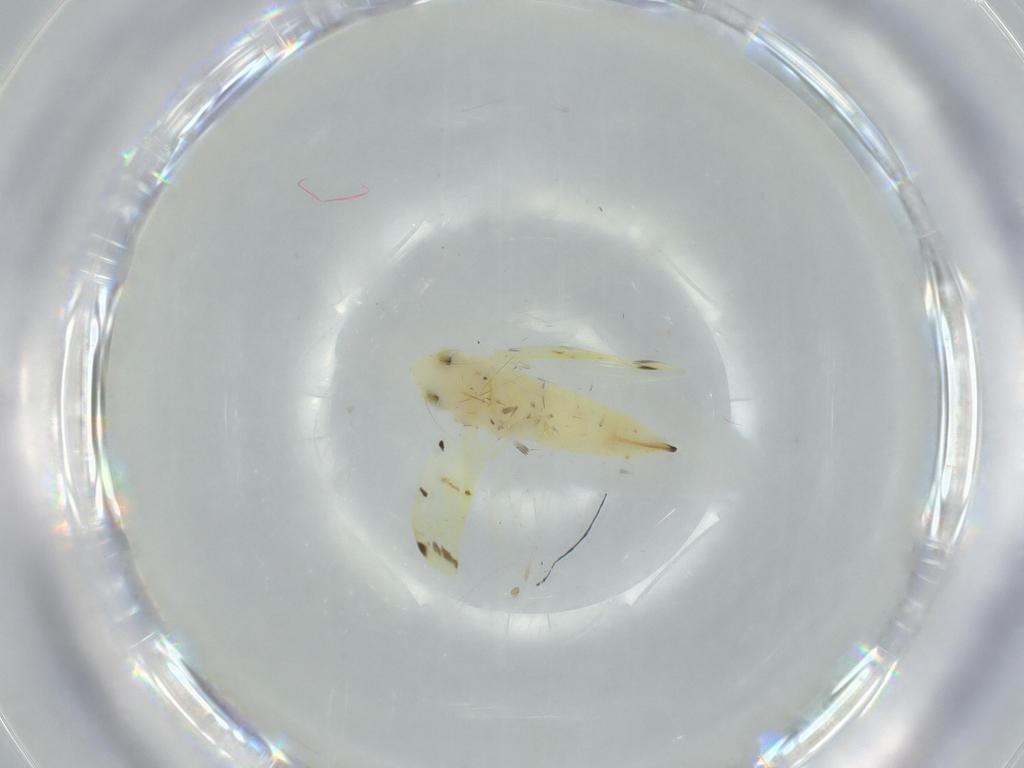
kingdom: Animalia
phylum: Arthropoda
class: Insecta
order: Hemiptera
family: Cicadellidae
